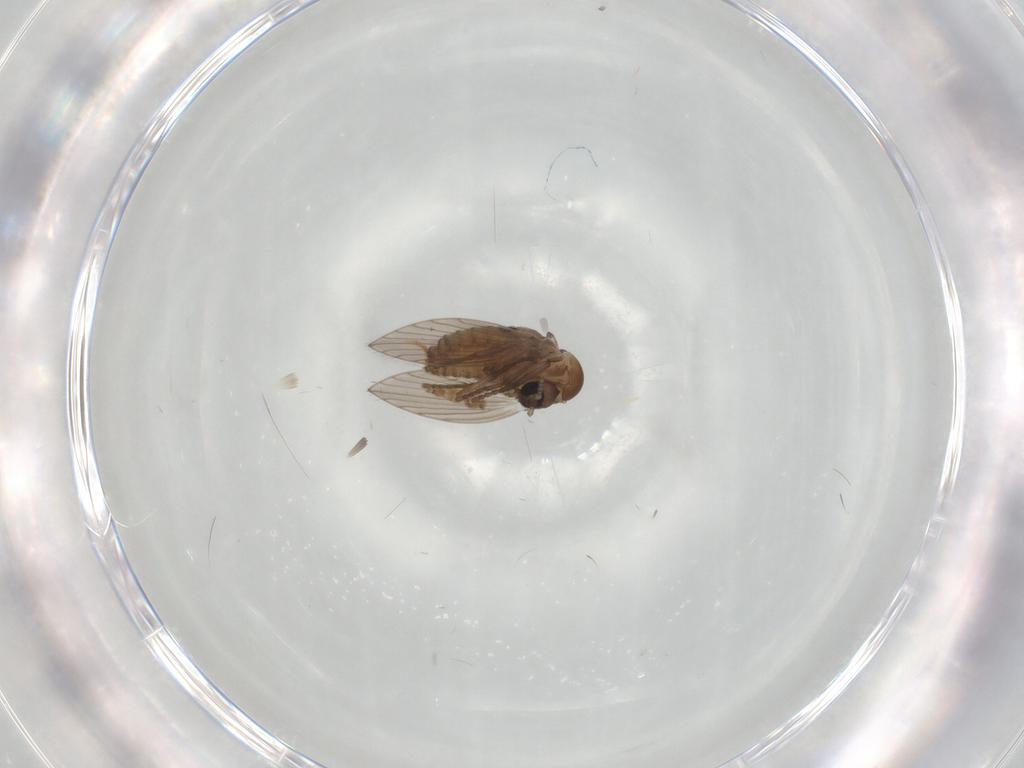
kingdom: Animalia
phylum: Arthropoda
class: Insecta
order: Diptera
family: Sciaridae
